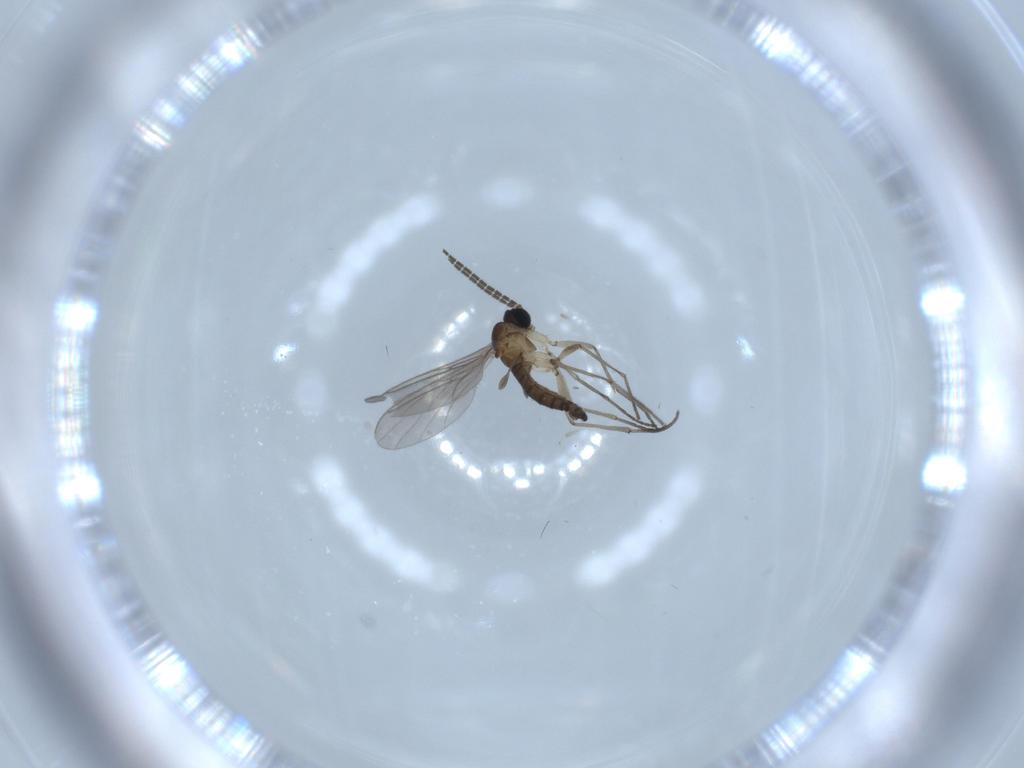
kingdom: Animalia
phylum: Arthropoda
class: Insecta
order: Diptera
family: Sciaridae
